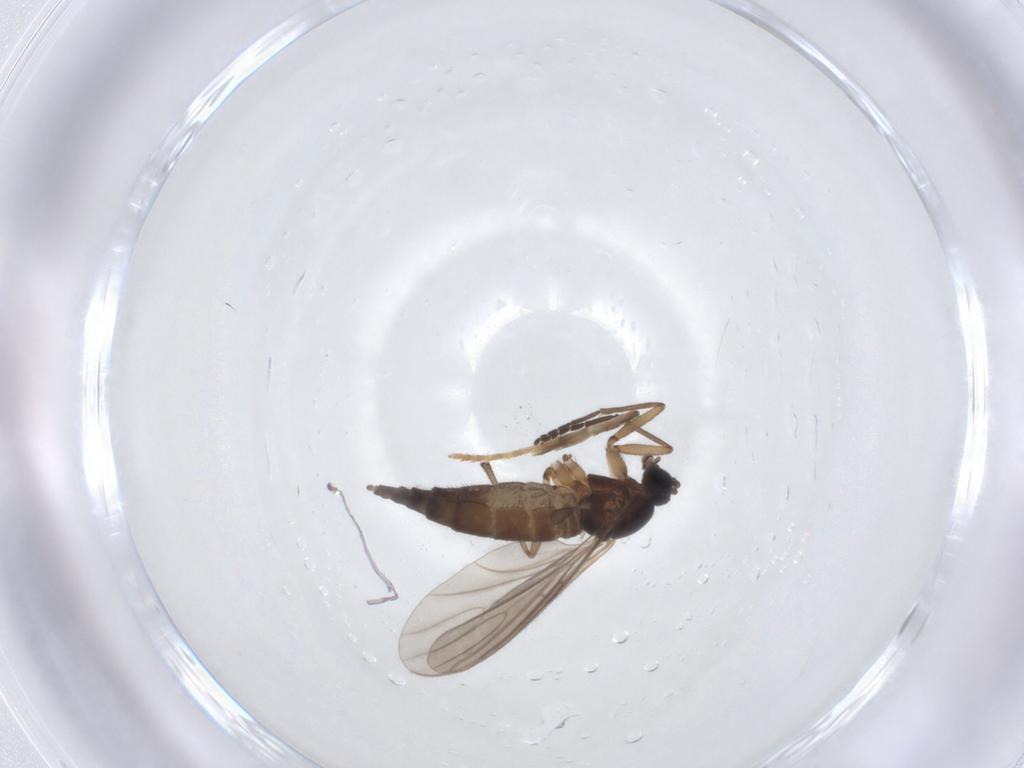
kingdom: Animalia
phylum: Arthropoda
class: Insecta
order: Diptera
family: Sciaridae
